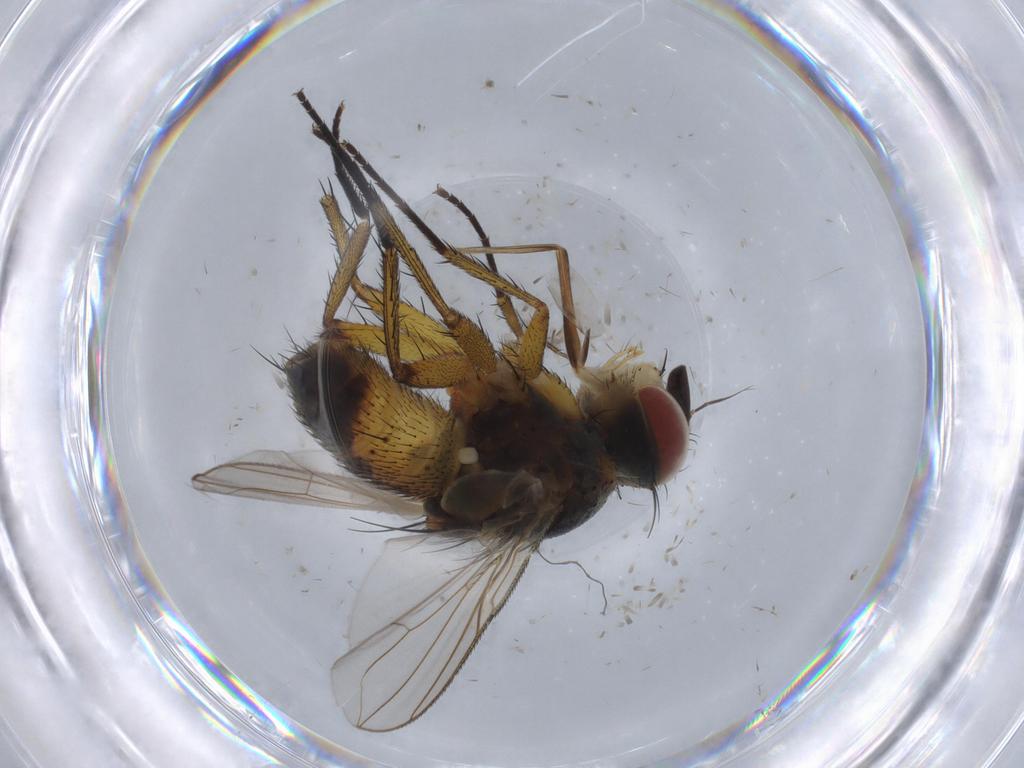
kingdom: Animalia
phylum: Arthropoda
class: Insecta
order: Diptera
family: Tachinidae
